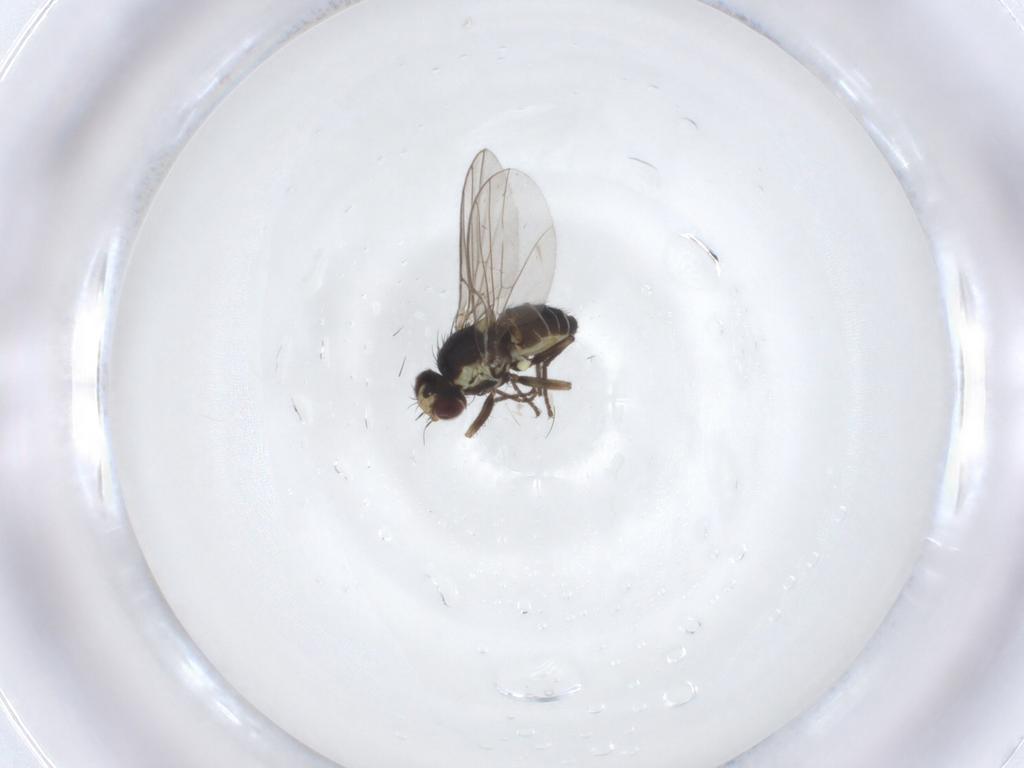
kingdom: Animalia
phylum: Arthropoda
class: Insecta
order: Diptera
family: Agromyzidae
